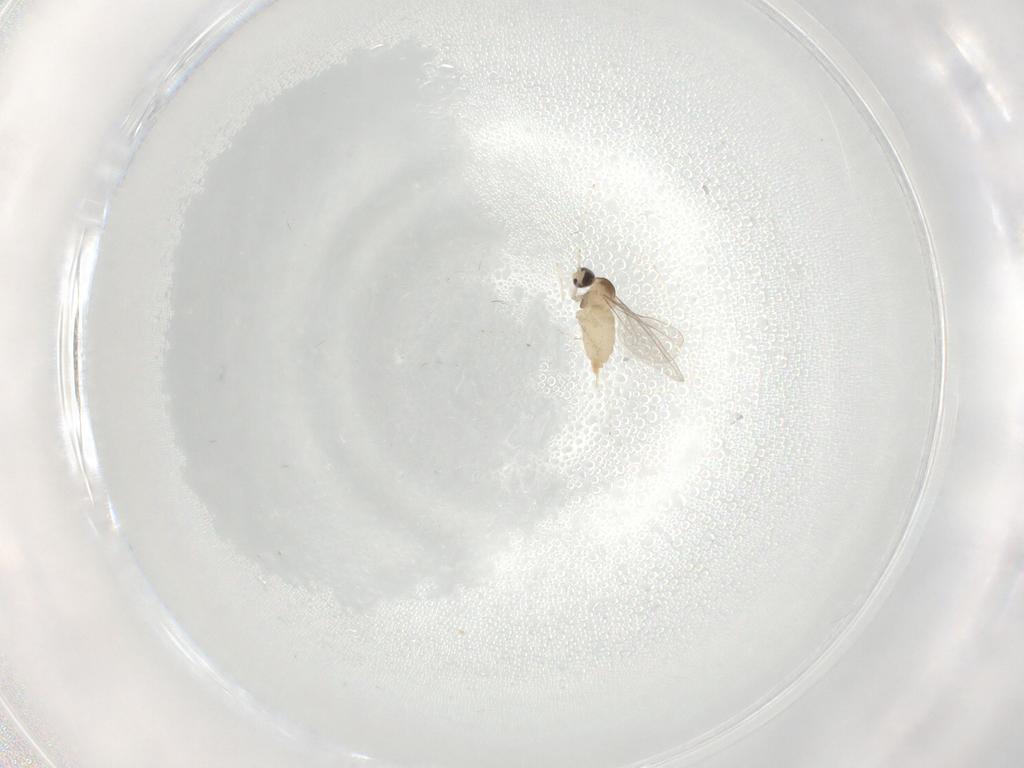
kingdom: Animalia
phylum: Arthropoda
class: Insecta
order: Diptera
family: Cecidomyiidae
